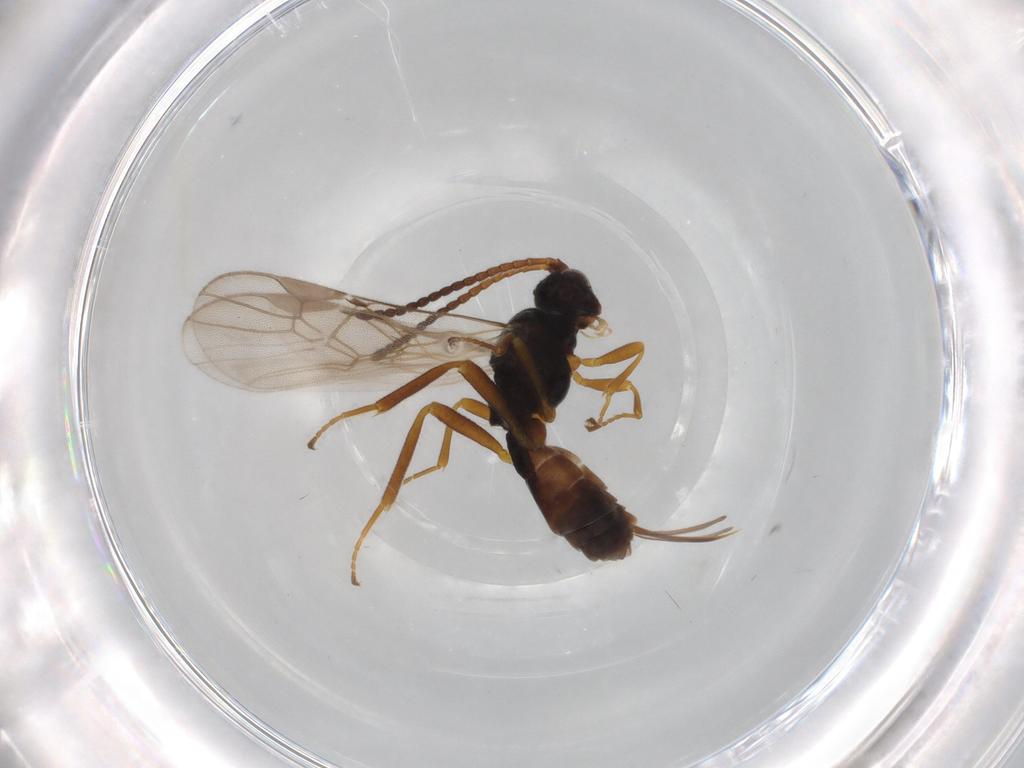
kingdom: Animalia
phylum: Arthropoda
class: Insecta
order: Hymenoptera
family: Braconidae
